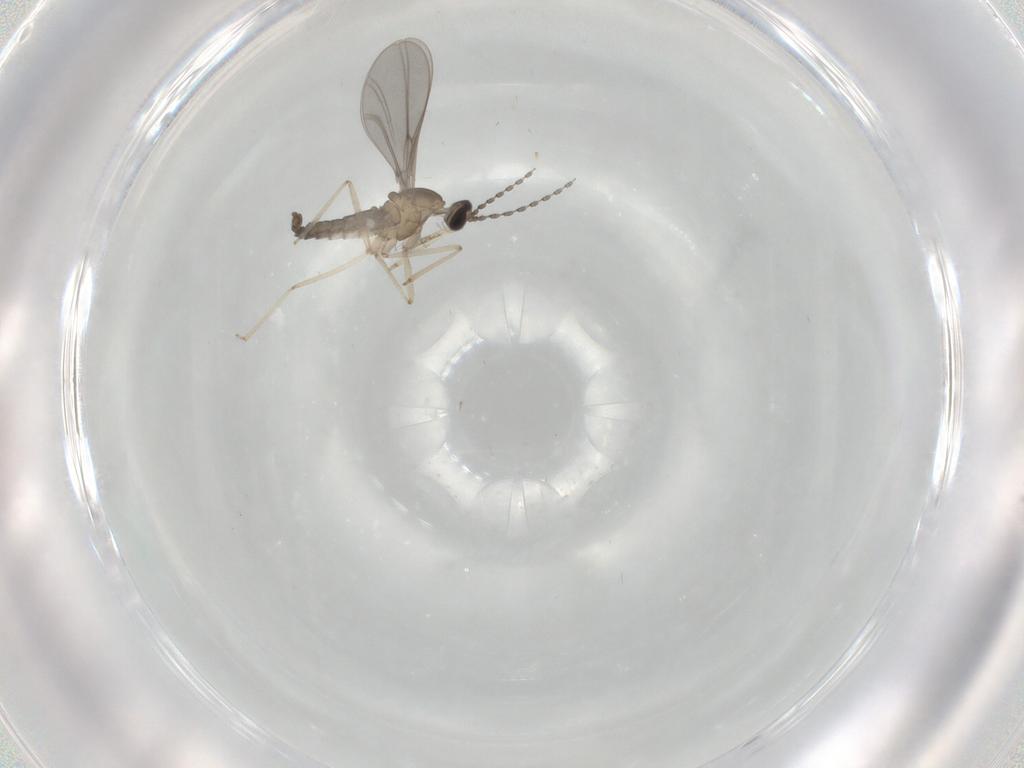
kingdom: Animalia
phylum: Arthropoda
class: Insecta
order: Diptera
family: Cecidomyiidae
